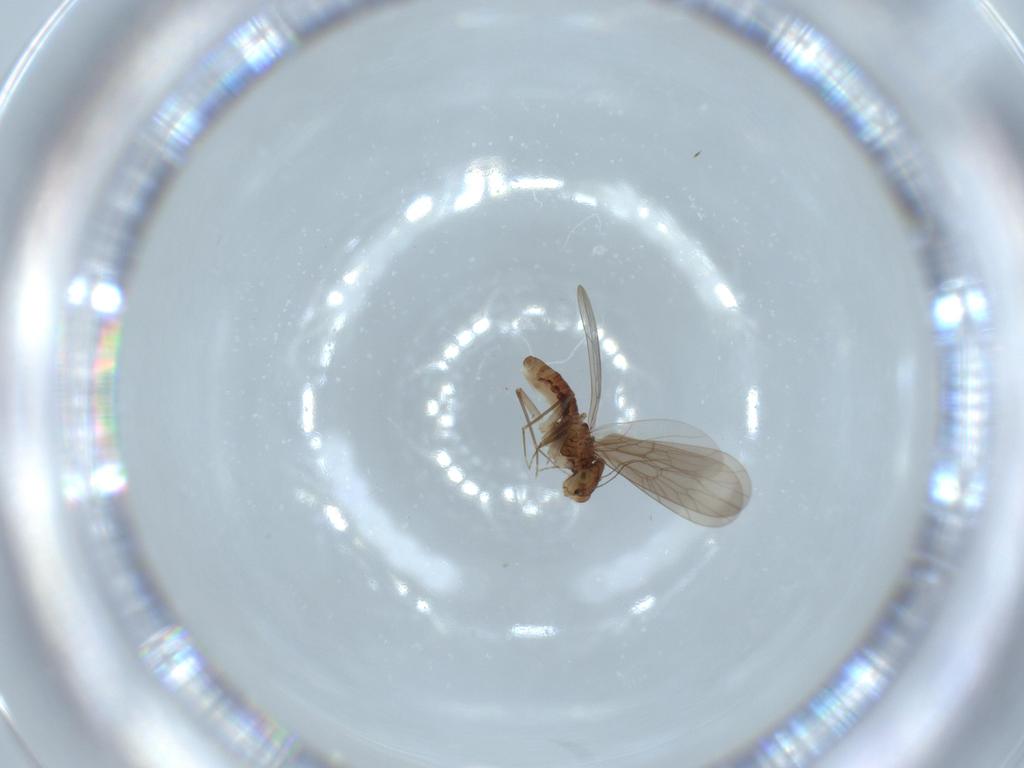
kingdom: Animalia
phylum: Arthropoda
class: Insecta
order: Psocodea
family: Lepidopsocidae
